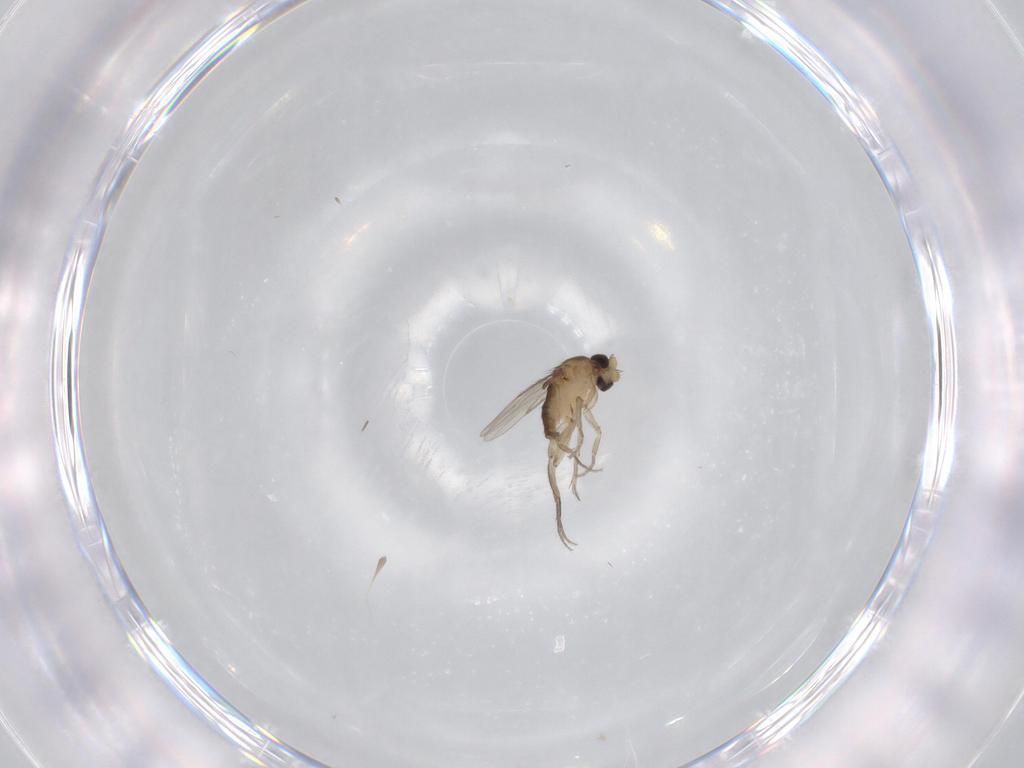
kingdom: Animalia
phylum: Arthropoda
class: Insecta
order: Diptera
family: Phoridae
